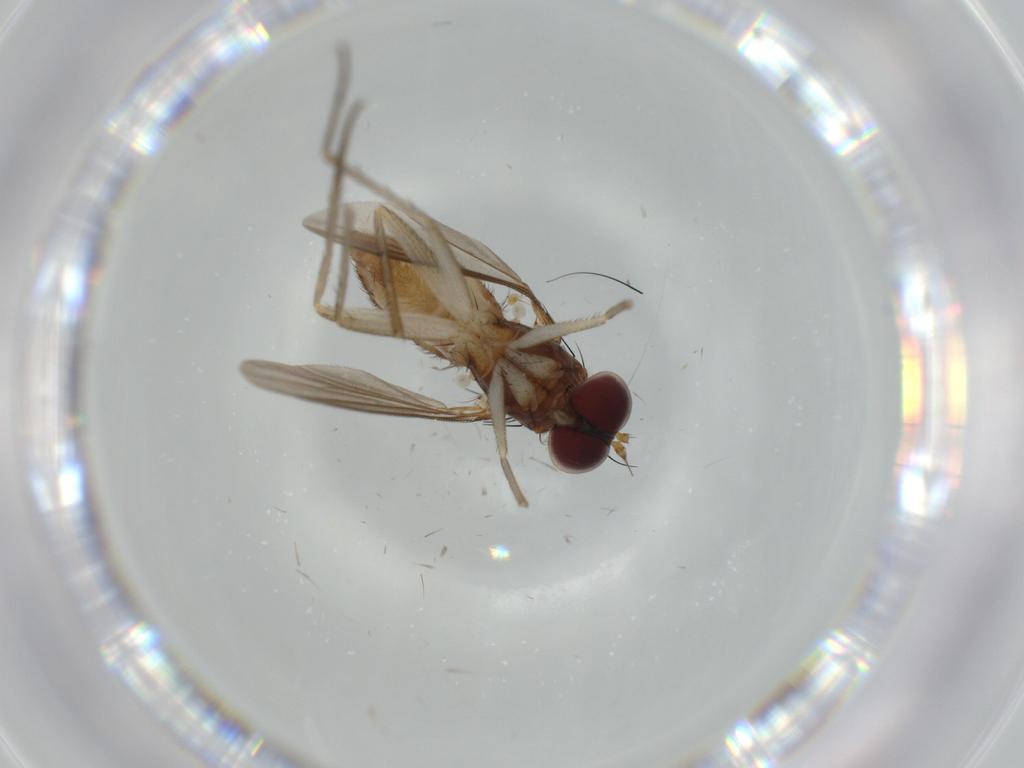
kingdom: Animalia
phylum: Arthropoda
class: Insecta
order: Diptera
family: Dolichopodidae
